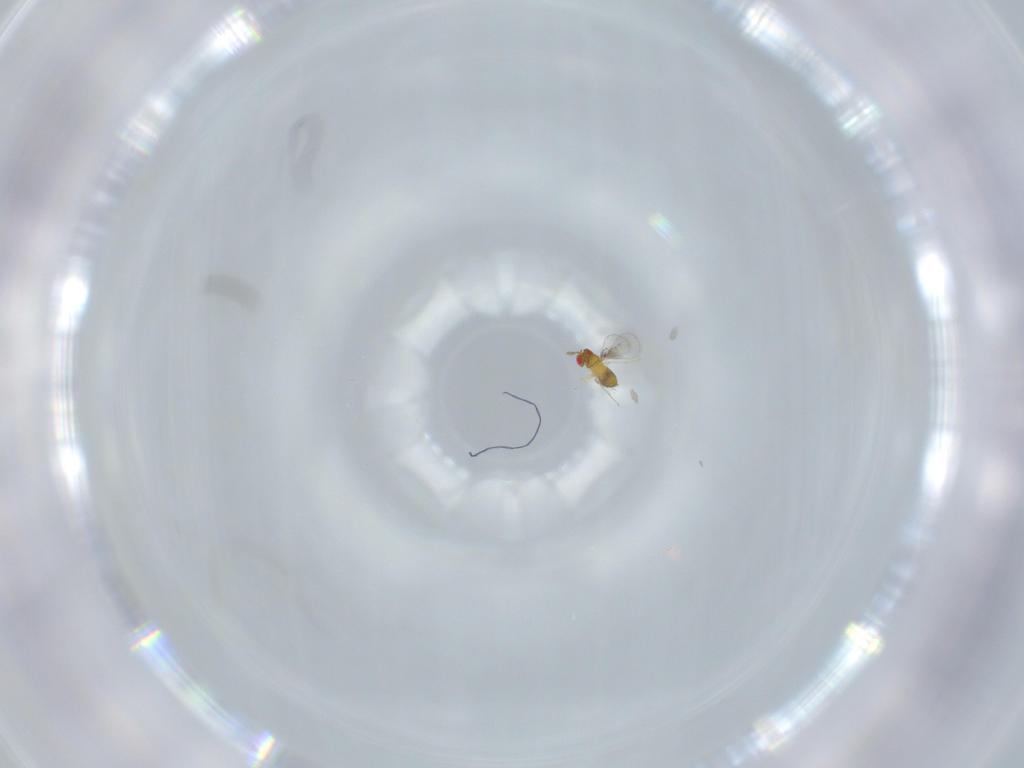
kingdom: Animalia
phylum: Arthropoda
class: Insecta
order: Hymenoptera
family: Trichogrammatidae
